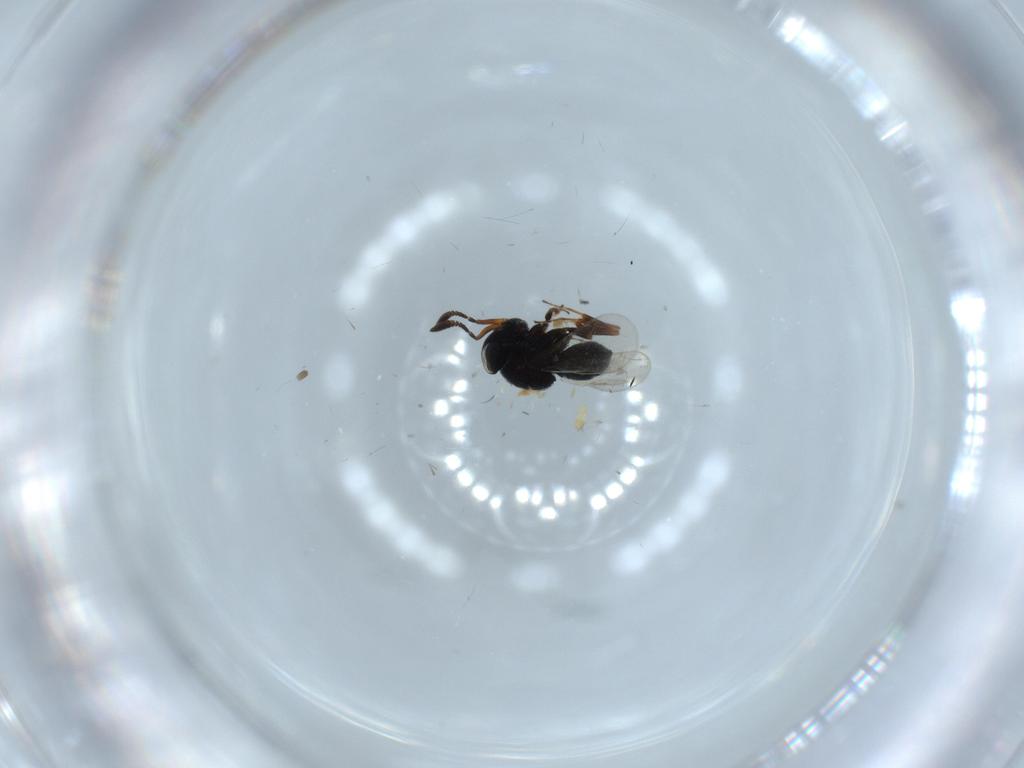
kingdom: Animalia
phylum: Arthropoda
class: Insecta
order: Hymenoptera
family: Scelionidae
